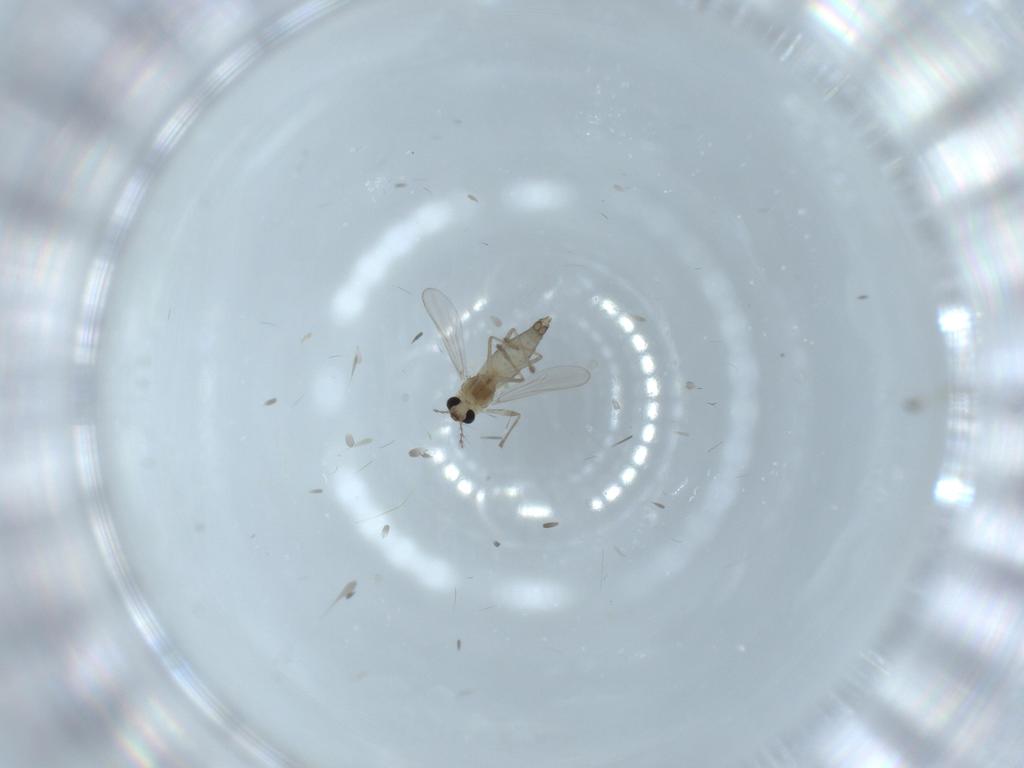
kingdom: Animalia
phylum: Arthropoda
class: Insecta
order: Diptera
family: Chironomidae
